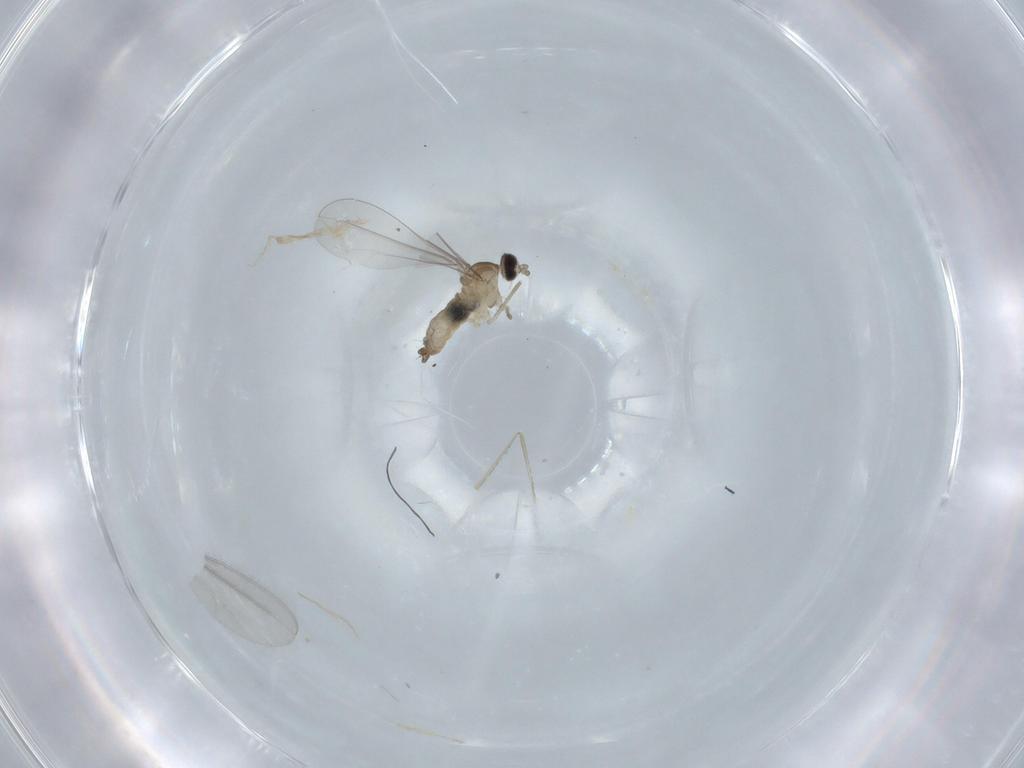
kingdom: Animalia
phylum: Arthropoda
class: Insecta
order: Diptera
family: Cecidomyiidae
